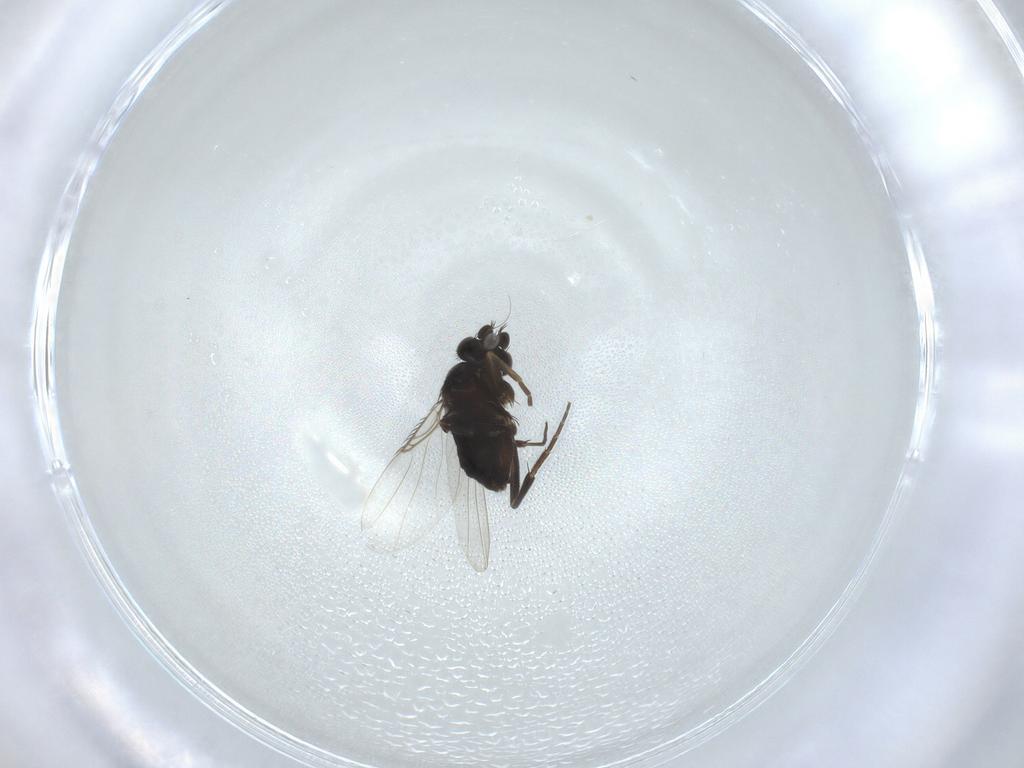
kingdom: Animalia
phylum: Arthropoda
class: Insecta
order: Diptera
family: Phoridae
